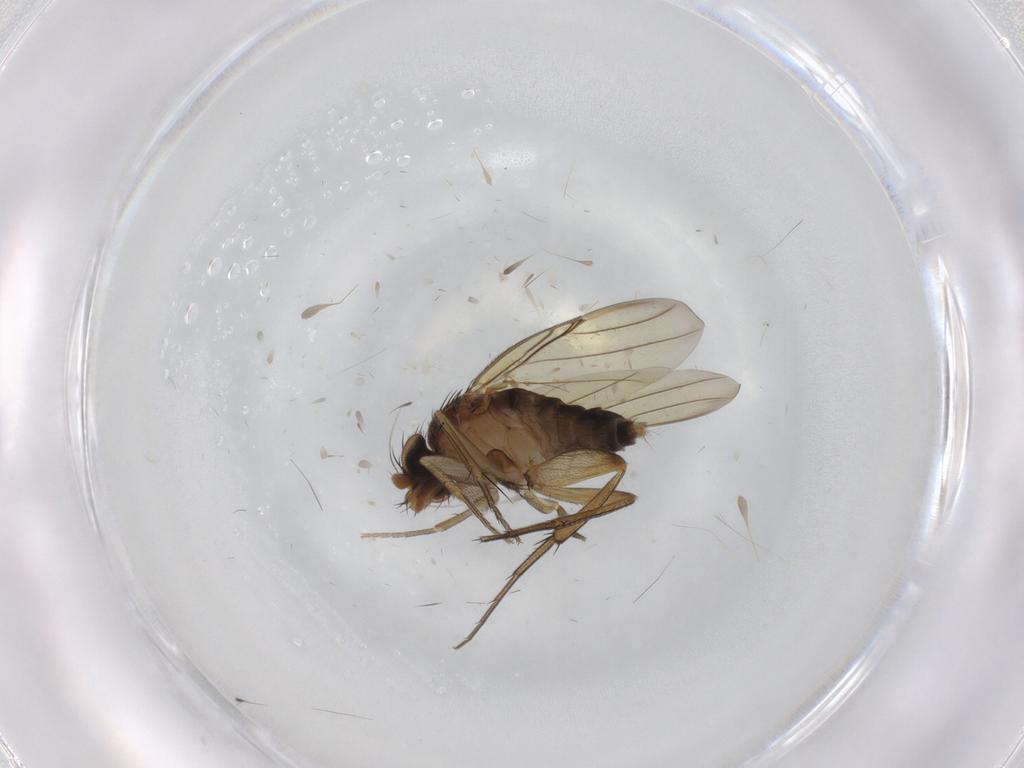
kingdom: Animalia
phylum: Arthropoda
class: Insecta
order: Diptera
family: Phoridae
